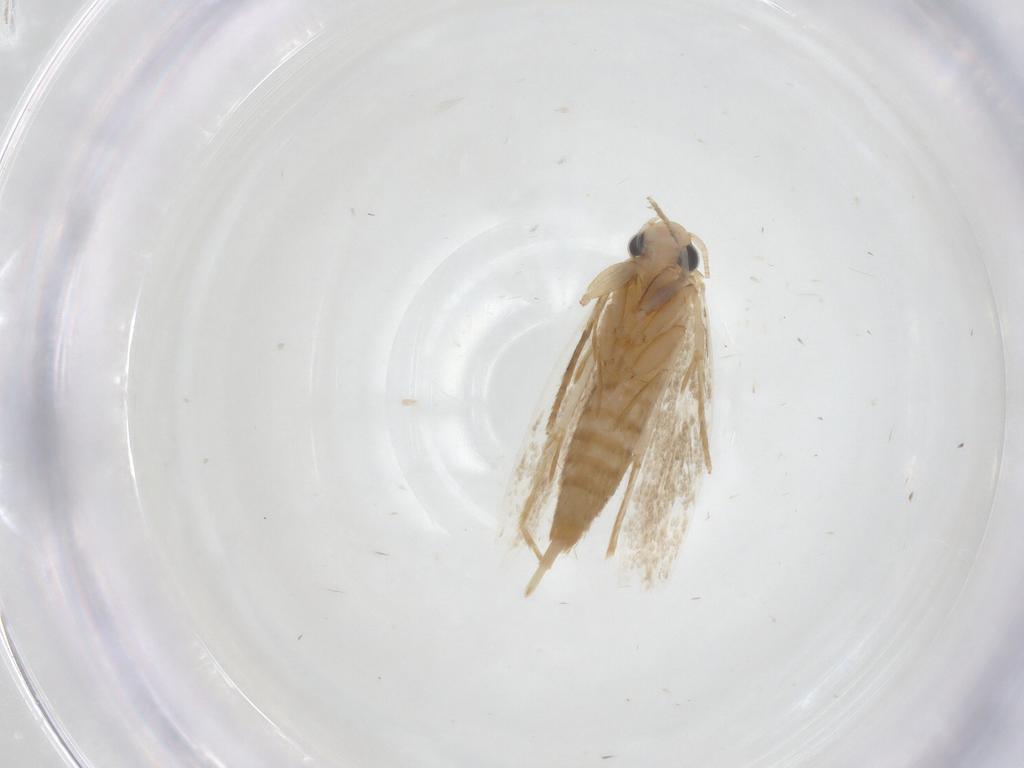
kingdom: Animalia
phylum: Arthropoda
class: Insecta
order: Lepidoptera
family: Tineidae
